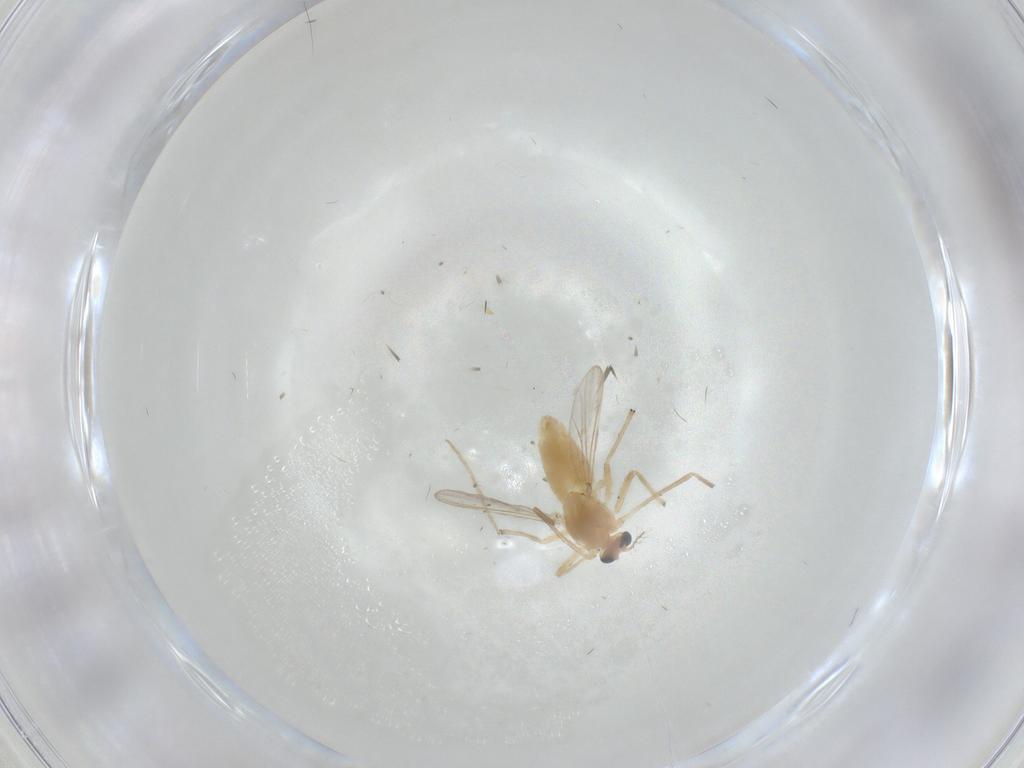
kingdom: Animalia
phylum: Arthropoda
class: Insecta
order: Diptera
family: Chironomidae
